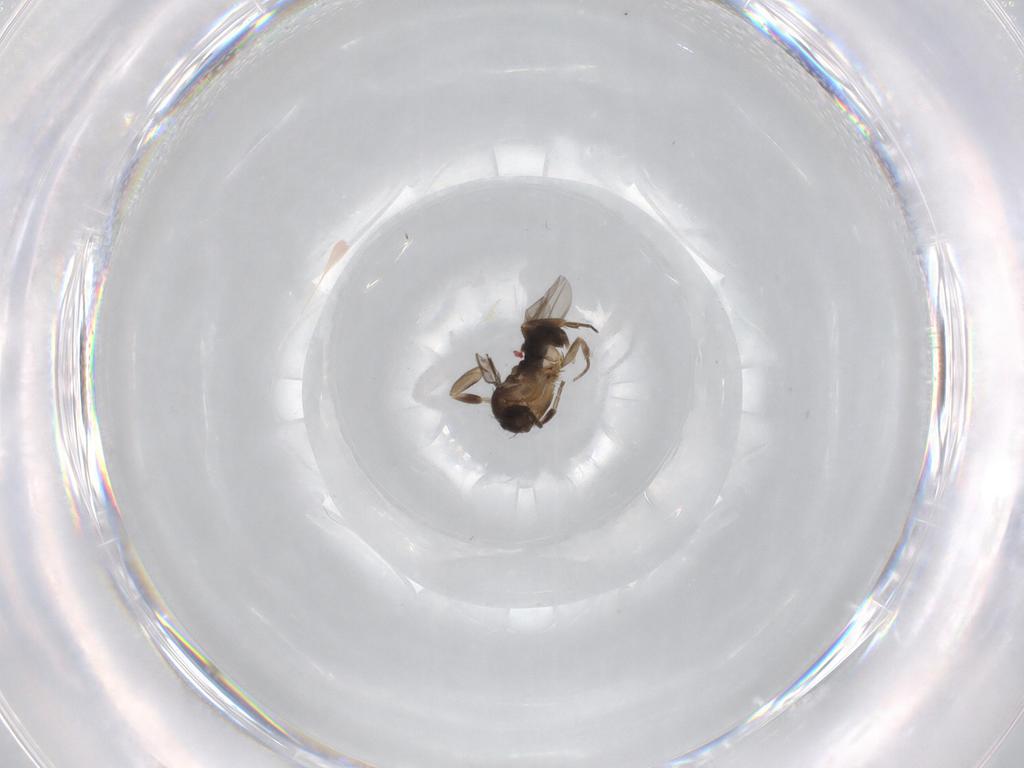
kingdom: Animalia
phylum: Arthropoda
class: Insecta
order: Diptera
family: Phoridae
